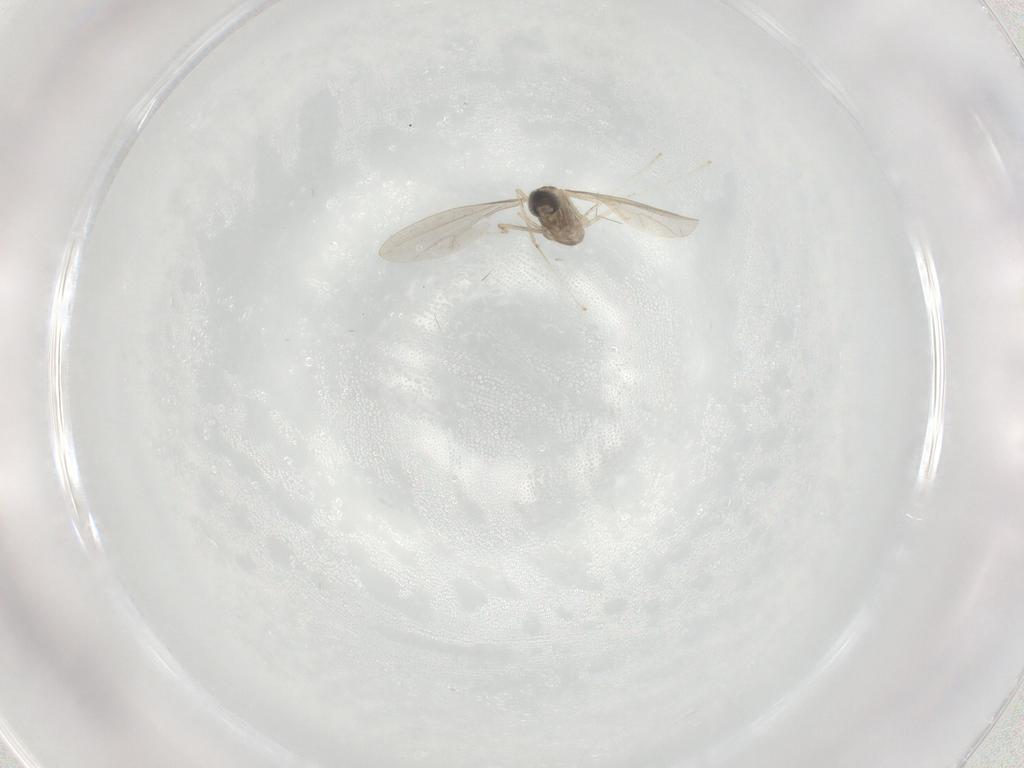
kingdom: Animalia
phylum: Arthropoda
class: Insecta
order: Diptera
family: Cecidomyiidae
